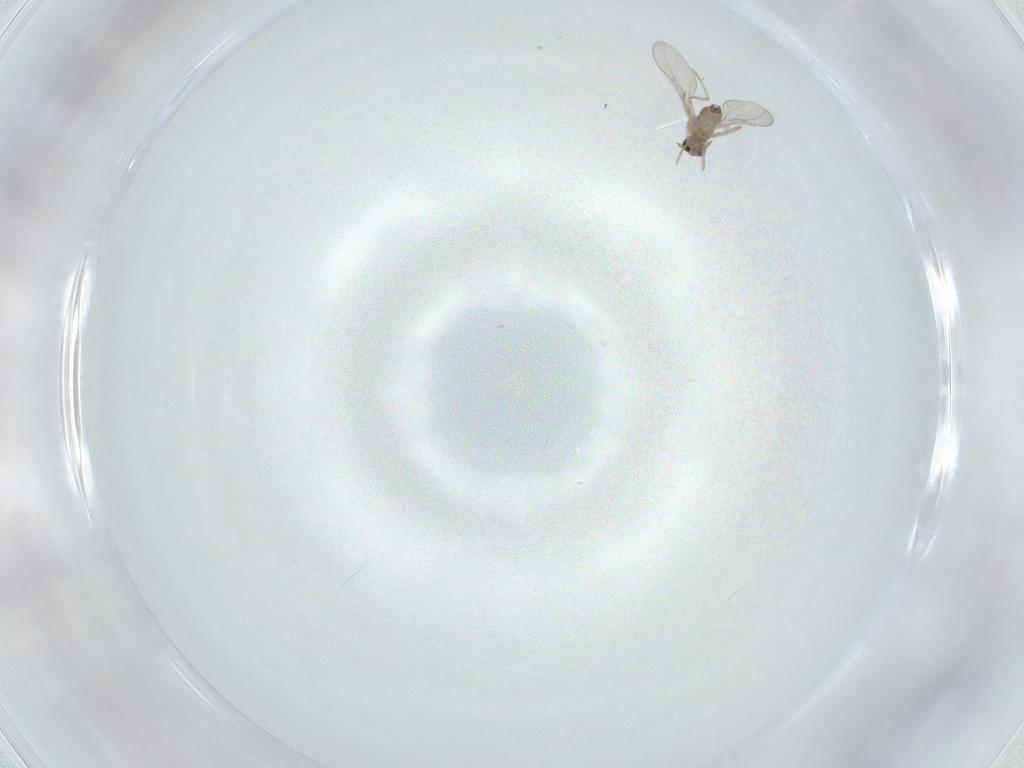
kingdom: Animalia
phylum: Arthropoda
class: Insecta
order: Diptera
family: Cecidomyiidae
